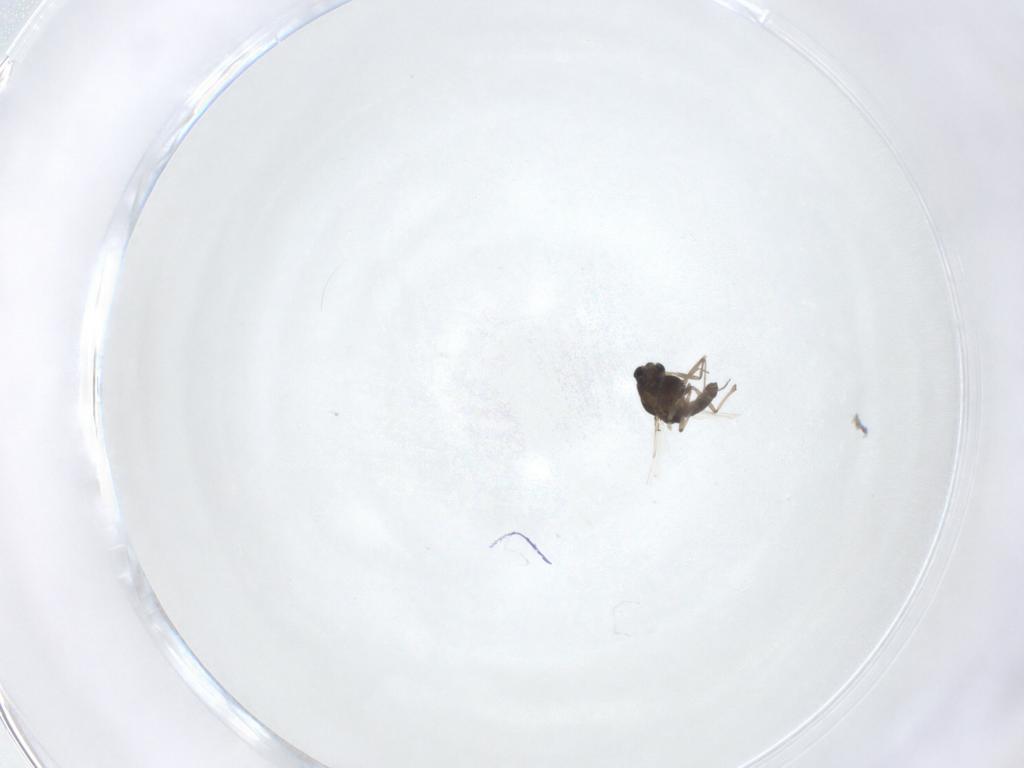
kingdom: Animalia
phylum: Arthropoda
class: Insecta
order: Diptera
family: Chironomidae
